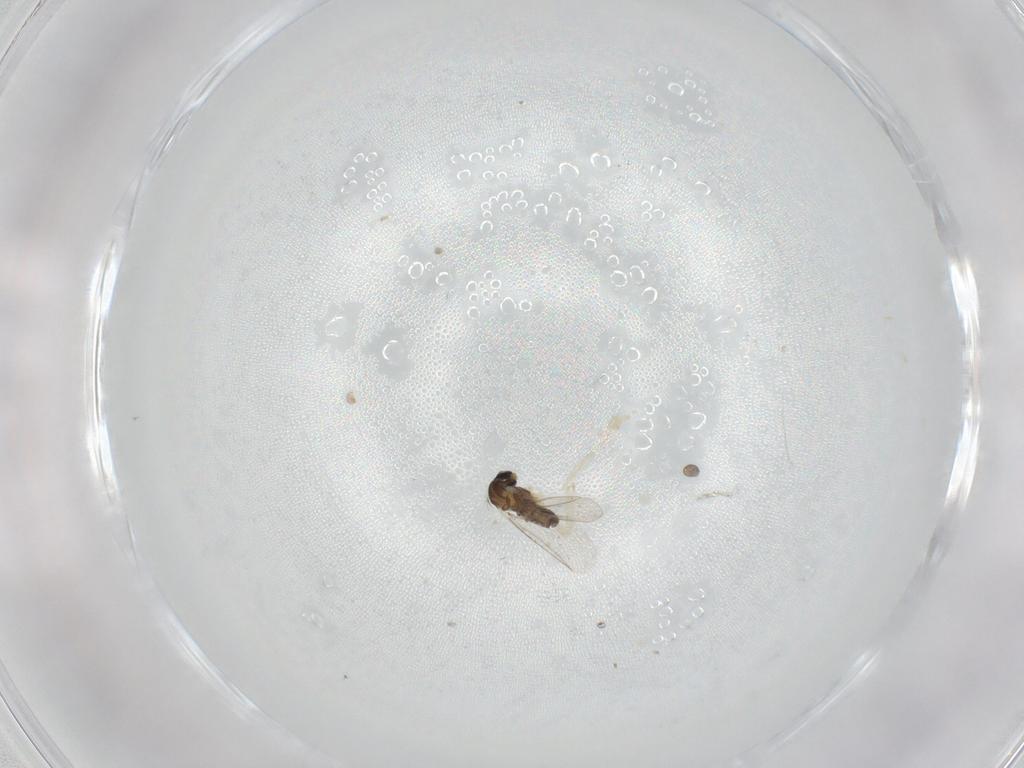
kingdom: Animalia
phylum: Arthropoda
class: Insecta
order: Diptera
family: Cecidomyiidae
